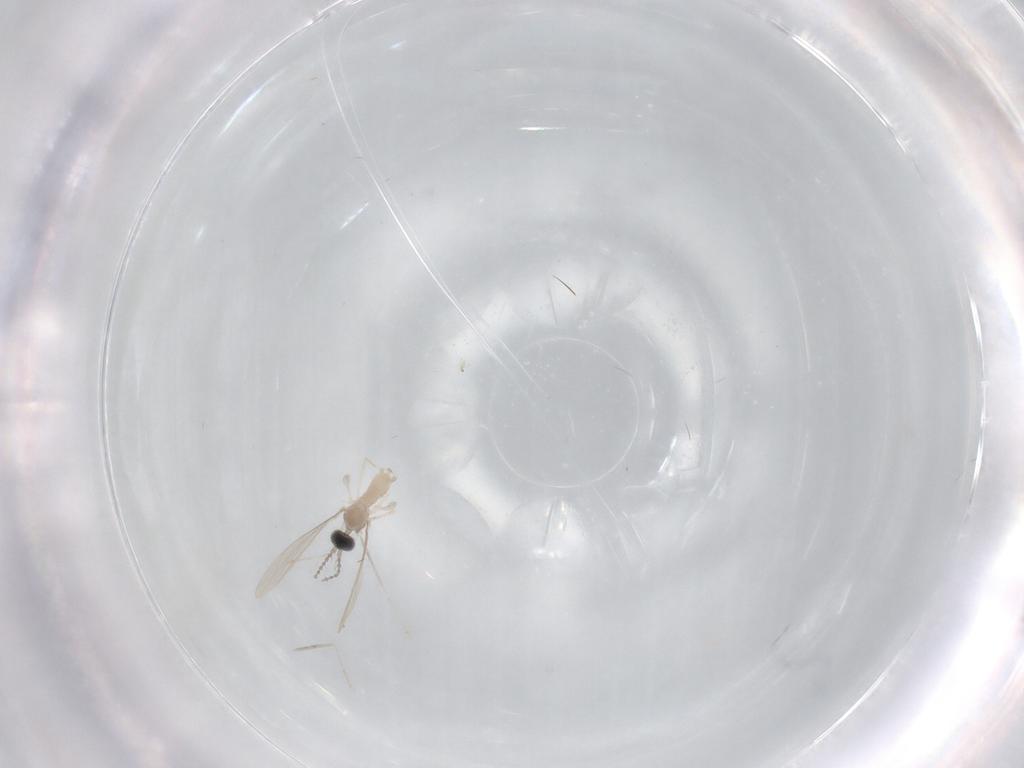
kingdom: Animalia
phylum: Arthropoda
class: Insecta
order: Diptera
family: Cecidomyiidae
